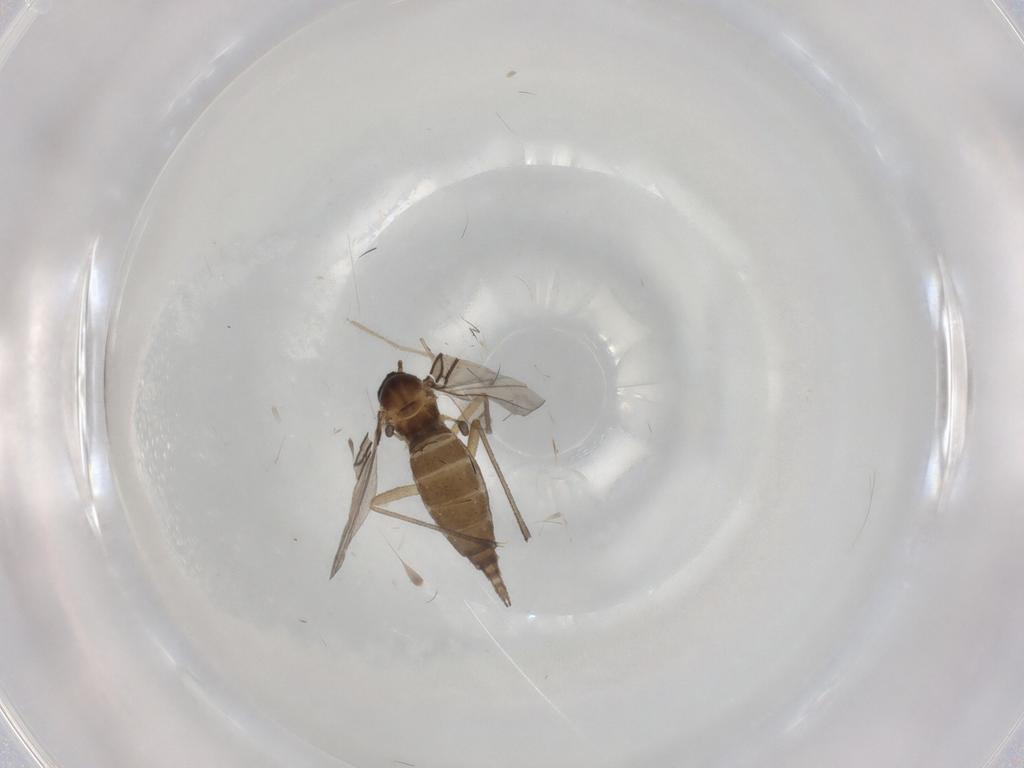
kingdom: Animalia
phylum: Arthropoda
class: Insecta
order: Diptera
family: Sciaridae
